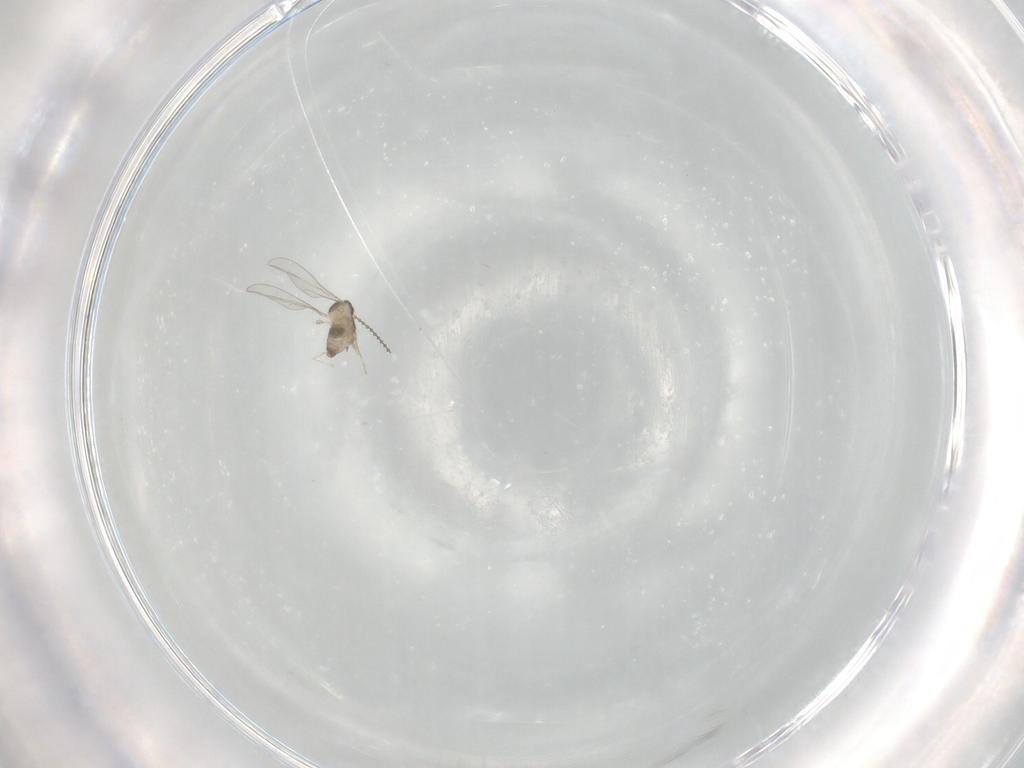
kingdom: Animalia
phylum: Arthropoda
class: Insecta
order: Diptera
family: Cecidomyiidae
